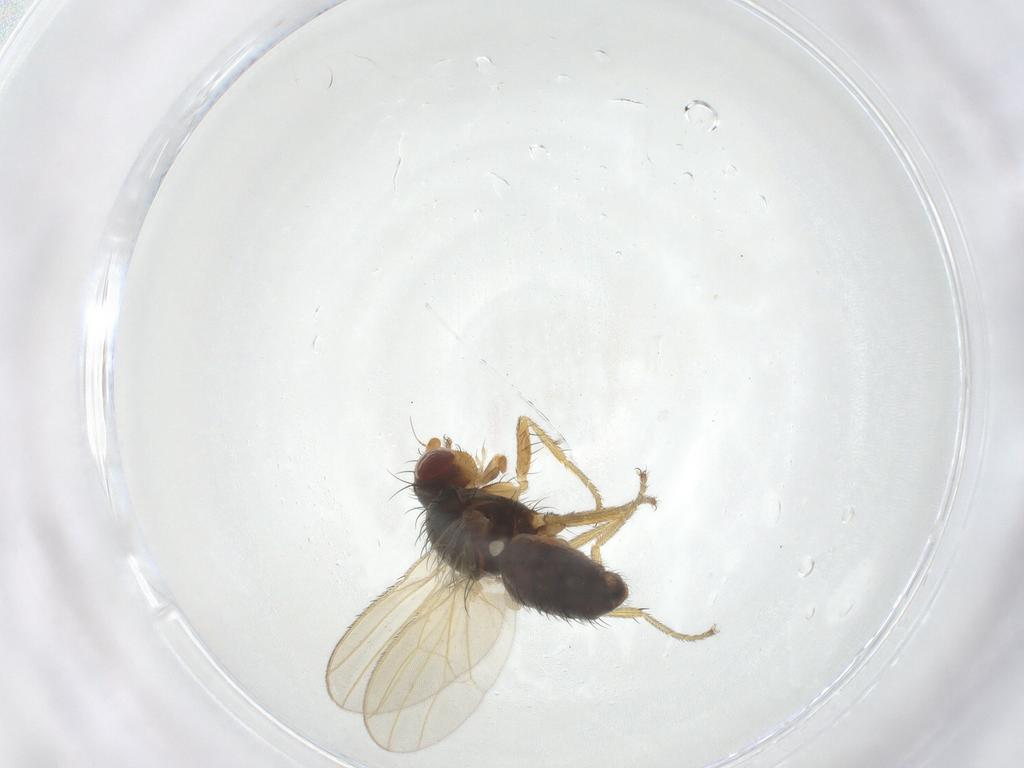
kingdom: Animalia
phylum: Arthropoda
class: Insecta
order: Diptera
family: Heleomyzidae
